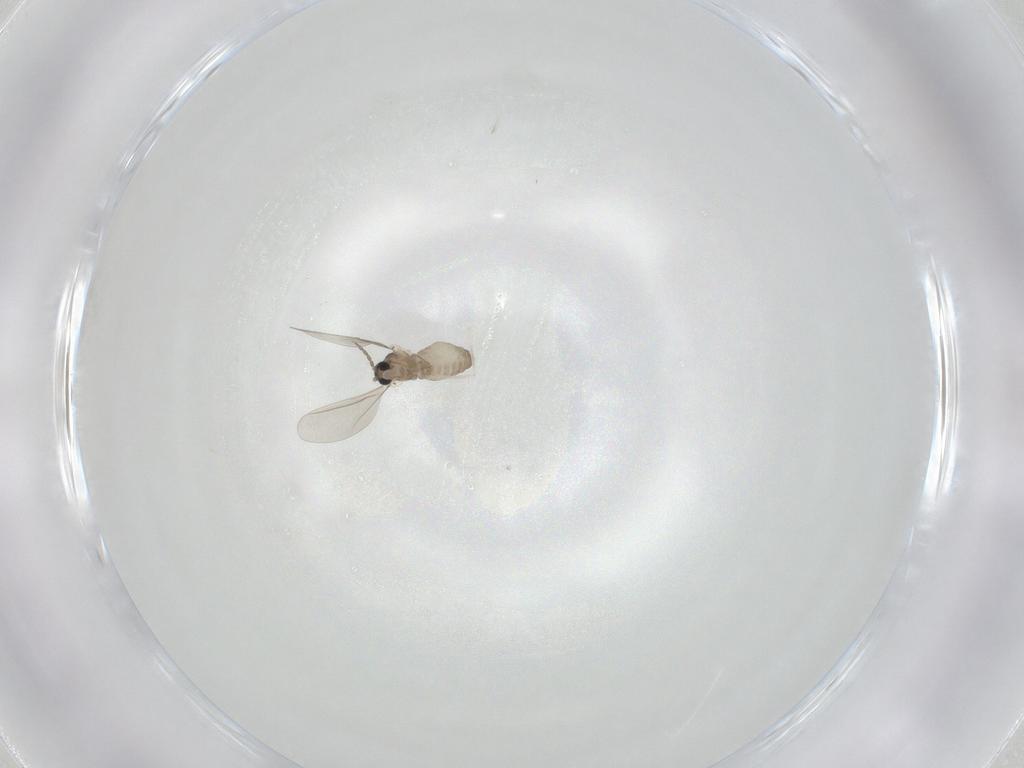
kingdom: Animalia
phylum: Arthropoda
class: Insecta
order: Diptera
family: Cecidomyiidae
